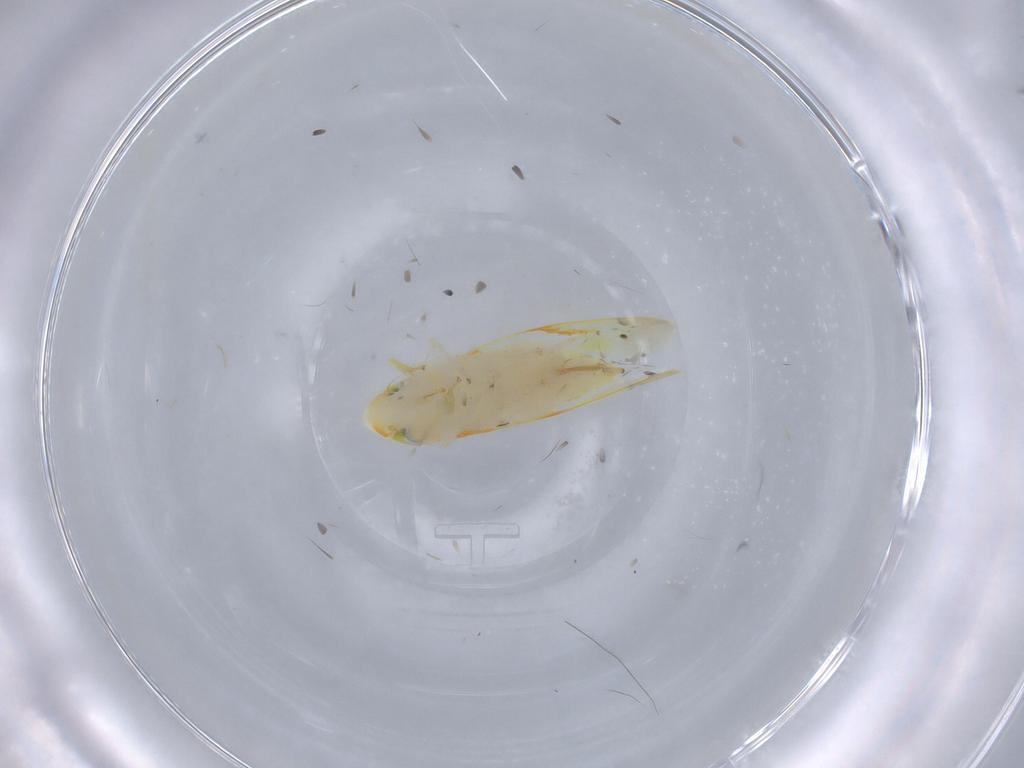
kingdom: Animalia
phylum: Arthropoda
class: Insecta
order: Hemiptera
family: Cicadellidae
